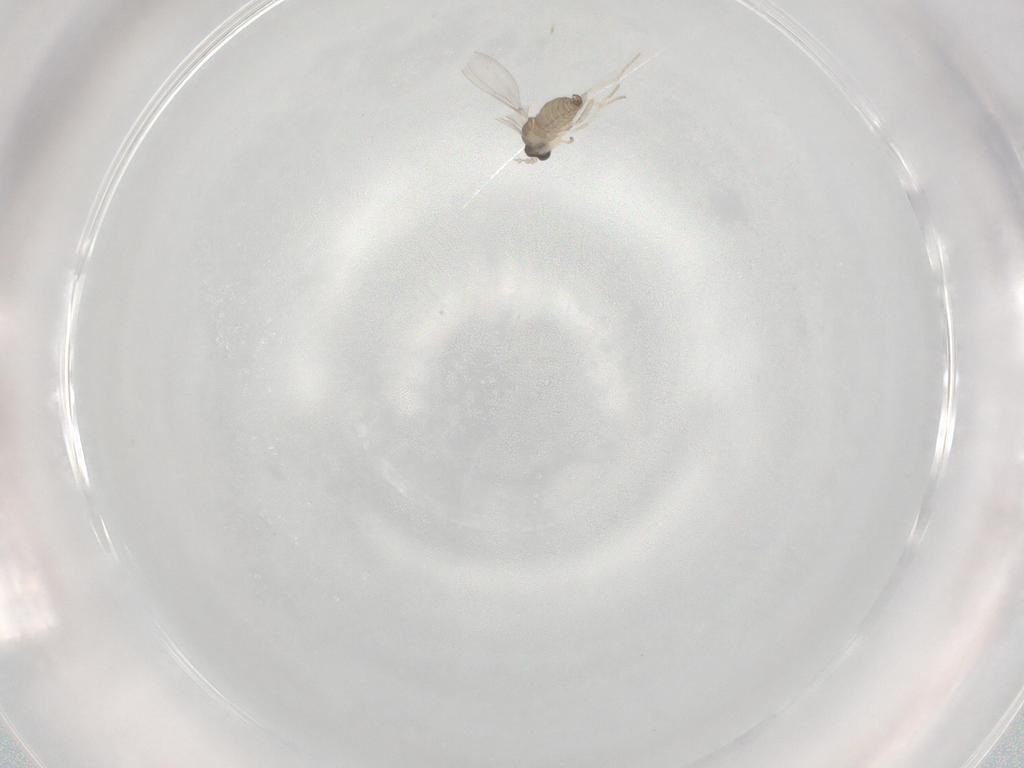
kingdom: Animalia
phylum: Arthropoda
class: Insecta
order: Diptera
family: Cecidomyiidae
